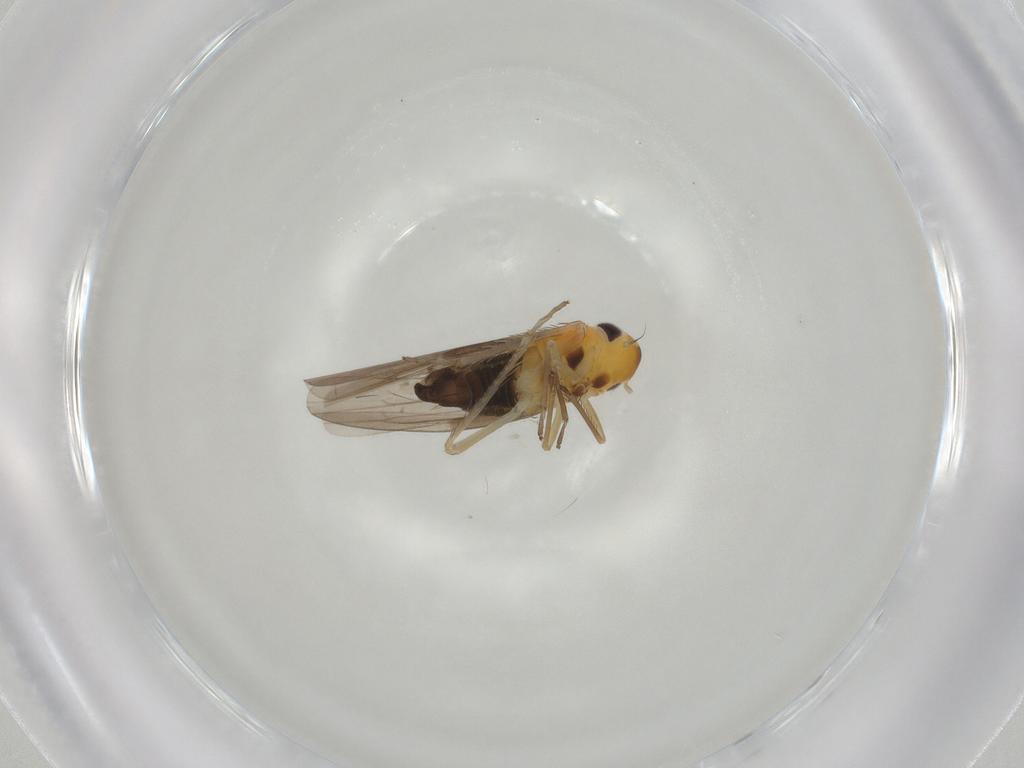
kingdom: Animalia
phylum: Arthropoda
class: Insecta
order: Hemiptera
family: Cicadellidae
